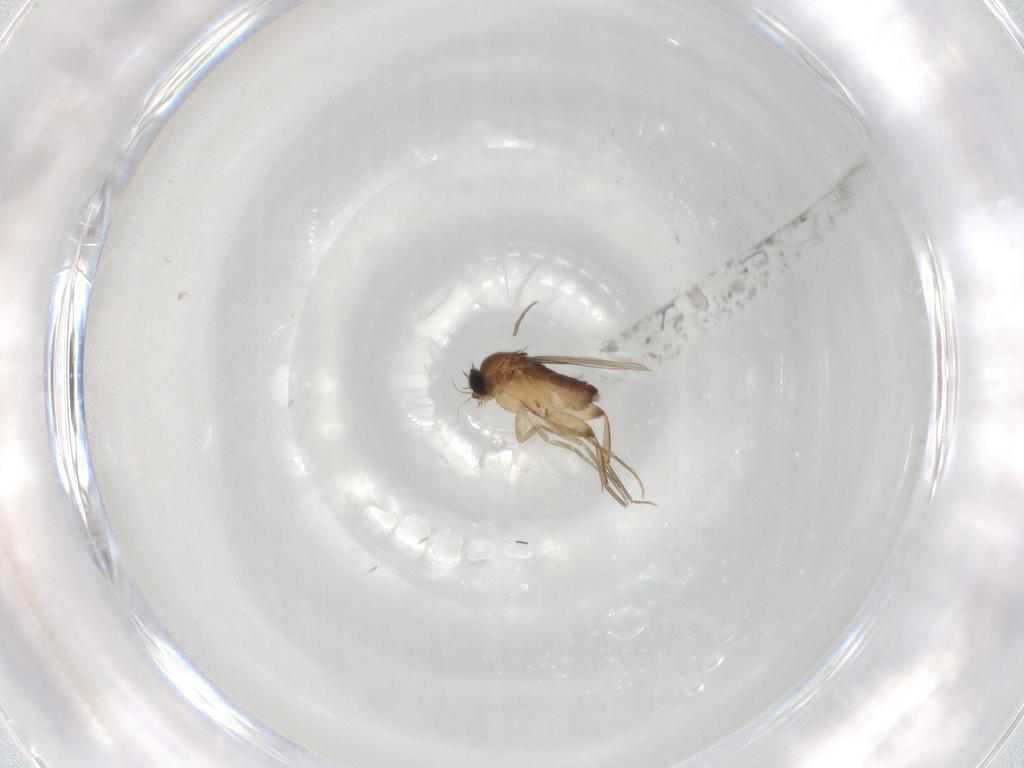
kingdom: Animalia
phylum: Arthropoda
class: Insecta
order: Diptera
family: Phoridae
